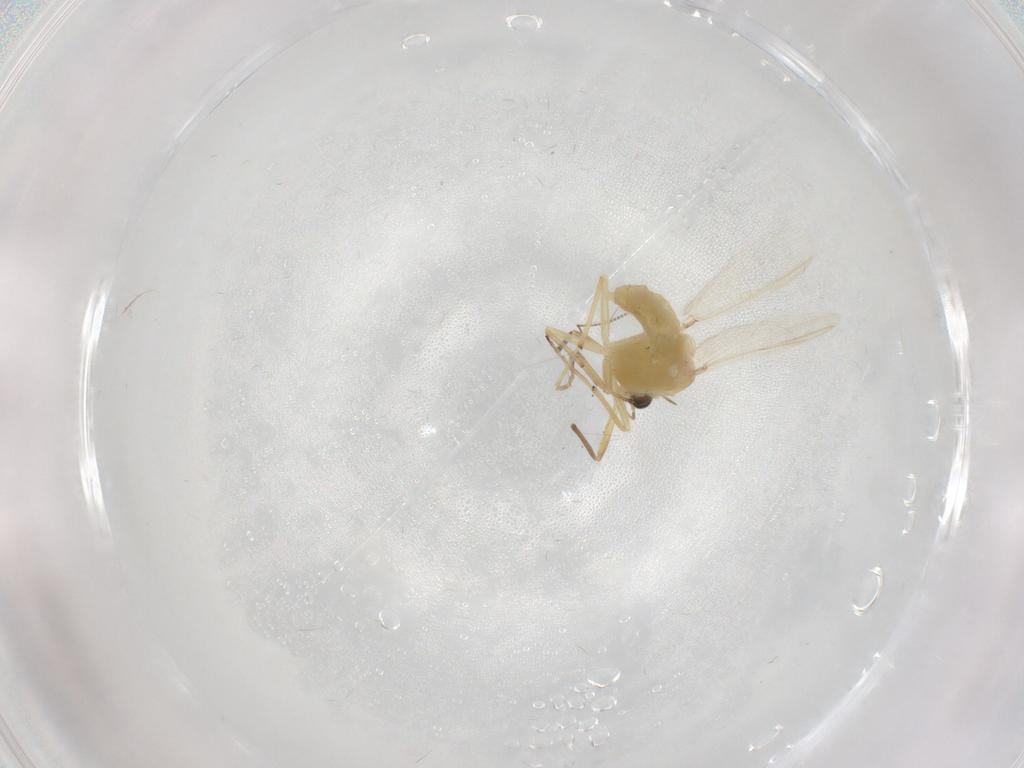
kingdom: Animalia
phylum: Arthropoda
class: Insecta
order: Diptera
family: Chironomidae
